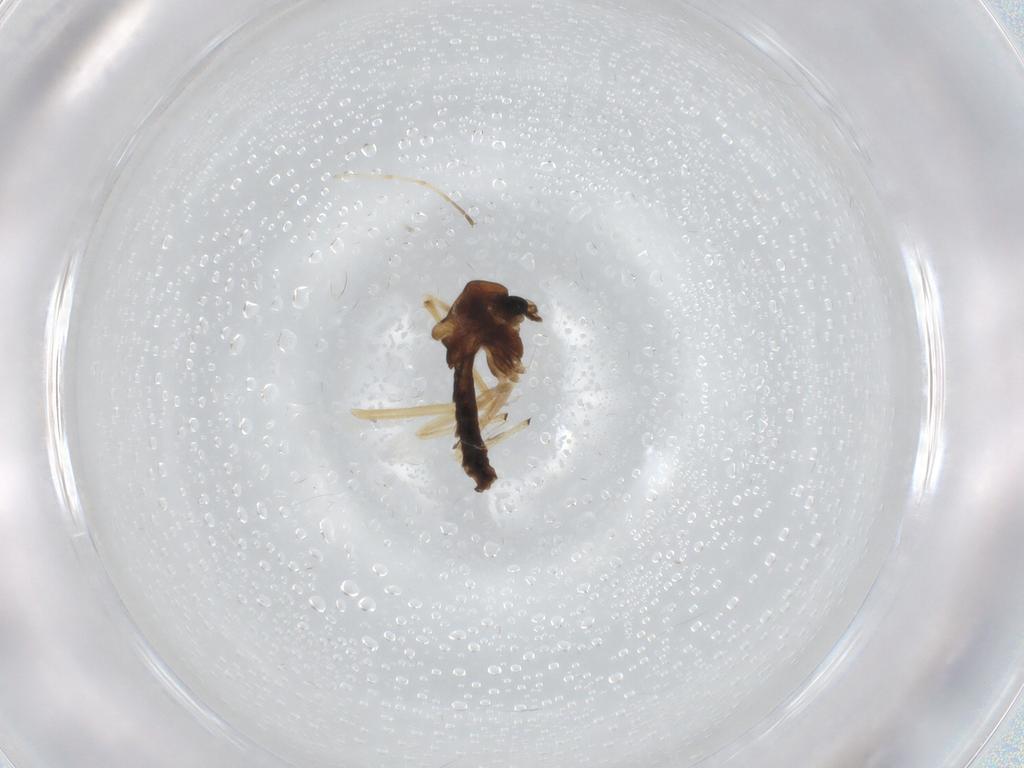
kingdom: Animalia
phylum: Arthropoda
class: Insecta
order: Diptera
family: Chironomidae
